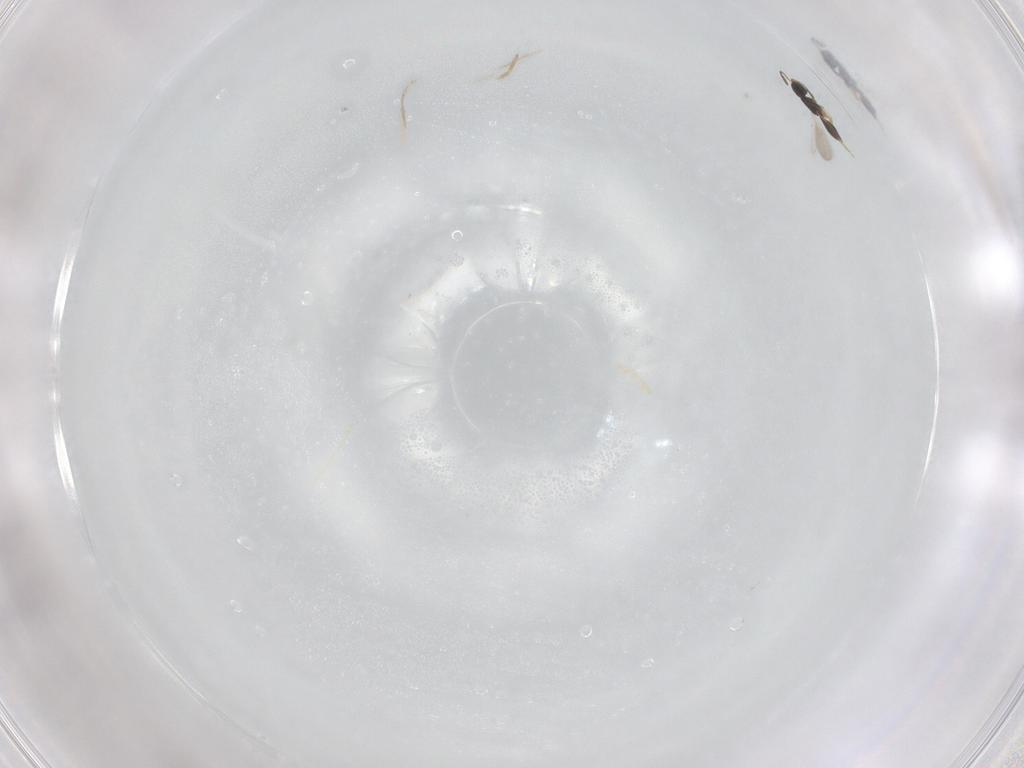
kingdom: Animalia
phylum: Arthropoda
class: Insecta
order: Hymenoptera
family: Scelionidae
